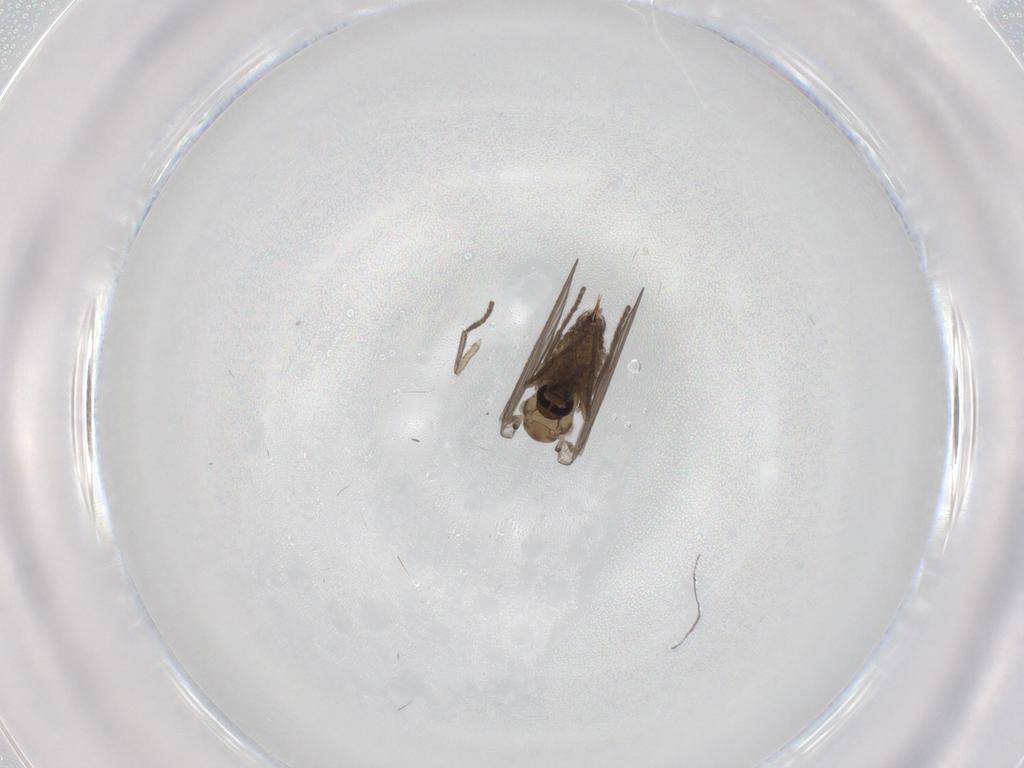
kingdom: Animalia
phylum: Arthropoda
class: Insecta
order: Diptera
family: Psychodidae
